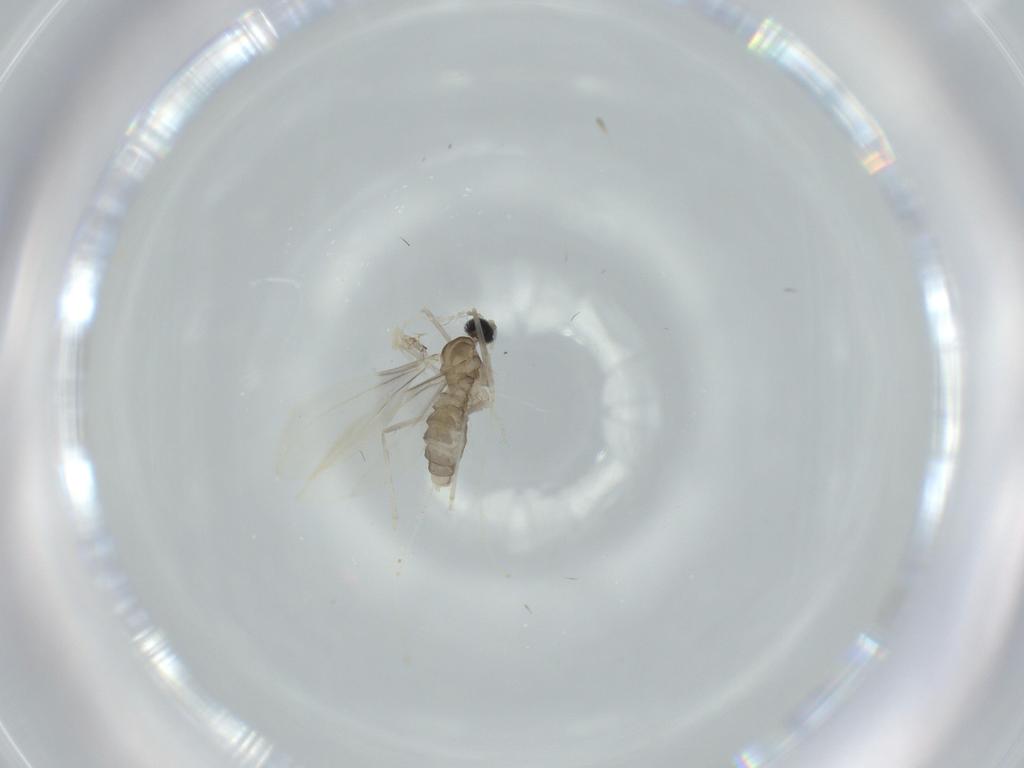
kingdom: Animalia
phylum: Arthropoda
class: Insecta
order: Diptera
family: Cecidomyiidae
